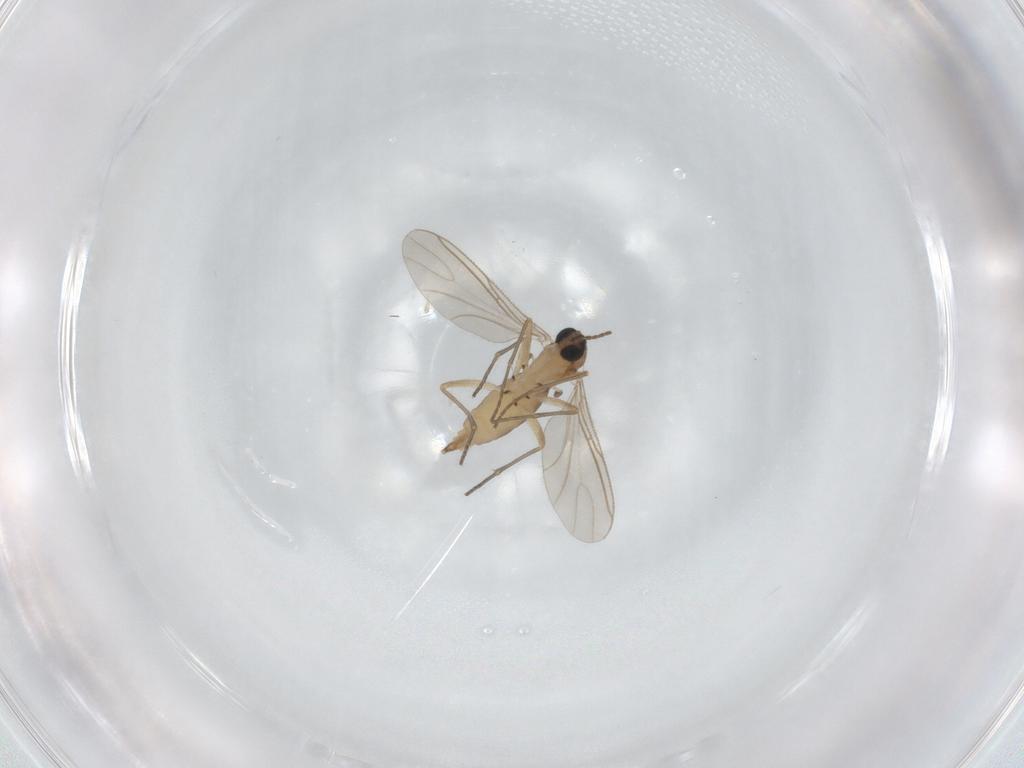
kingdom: Animalia
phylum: Arthropoda
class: Insecta
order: Diptera
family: Sciaridae
